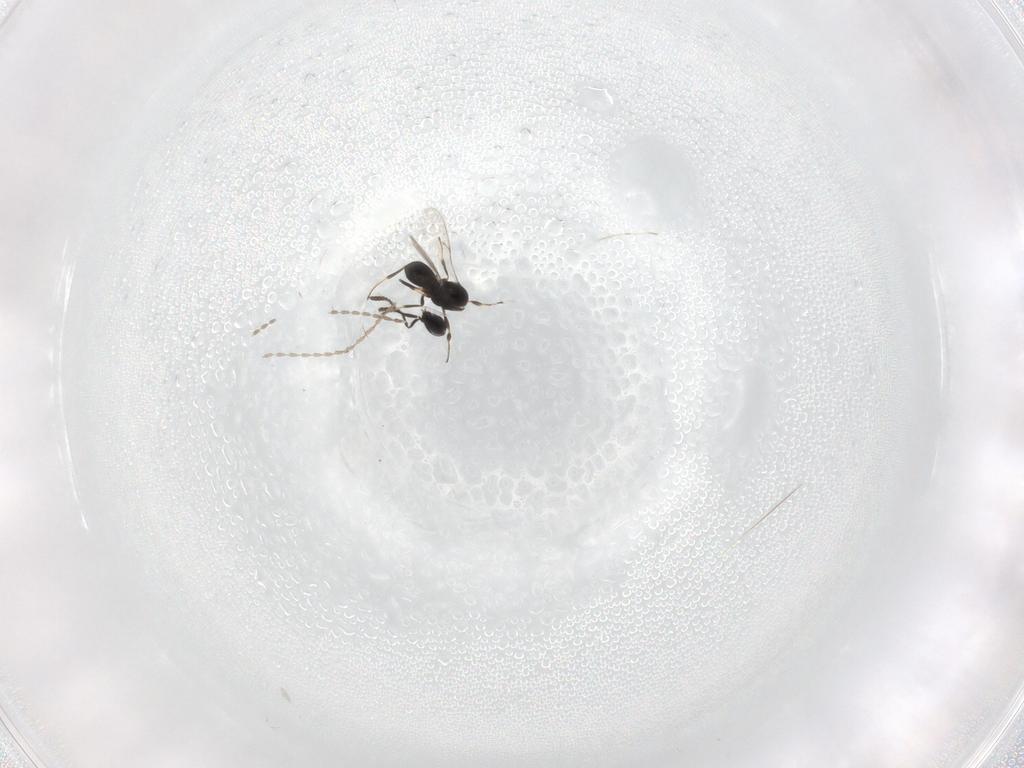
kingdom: Animalia
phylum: Arthropoda
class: Insecta
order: Hymenoptera
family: Scelionidae
